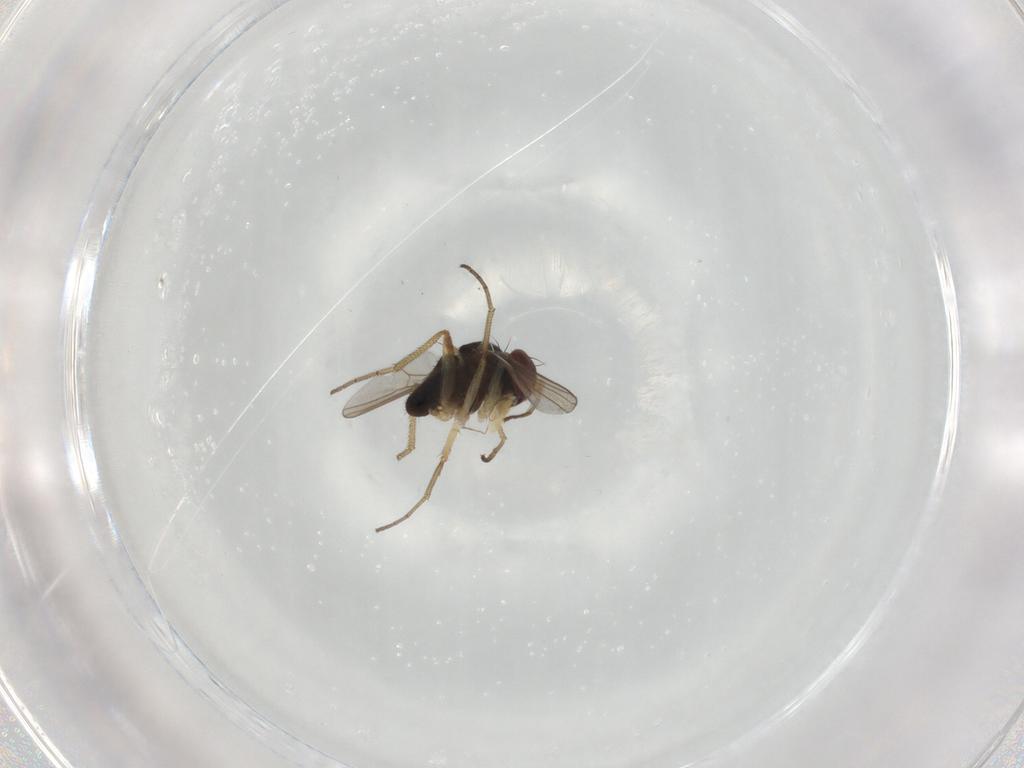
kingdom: Animalia
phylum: Arthropoda
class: Insecta
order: Diptera
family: Dolichopodidae
